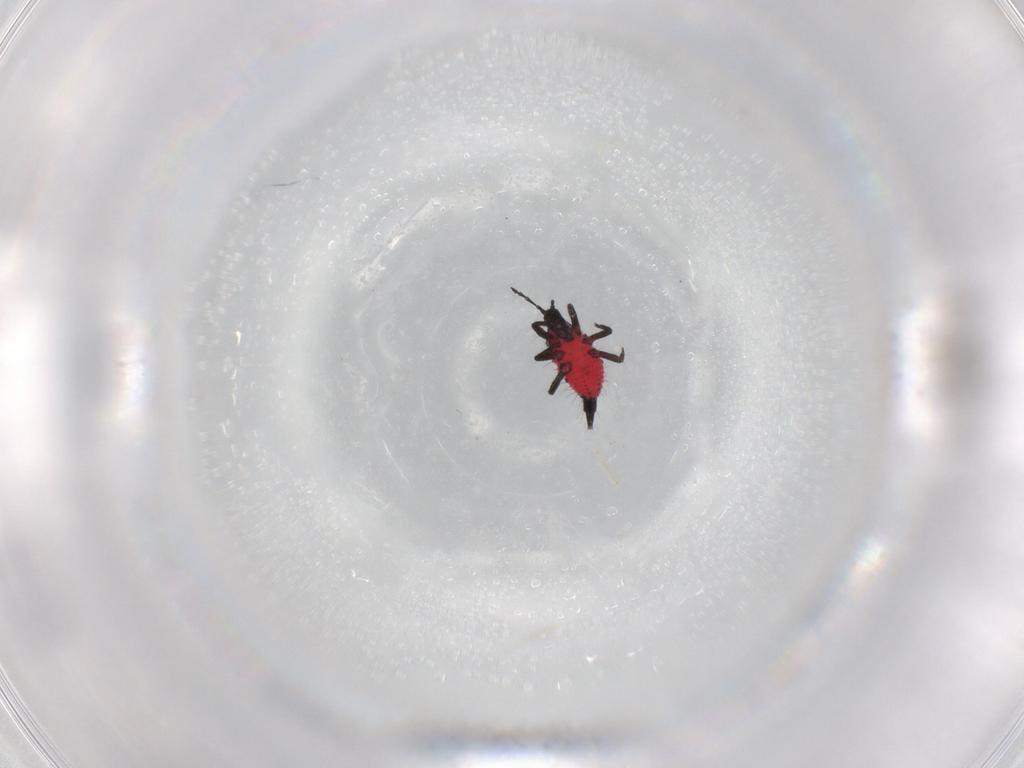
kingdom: Animalia
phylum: Arthropoda
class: Insecta
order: Thysanoptera
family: Phlaeothripidae
